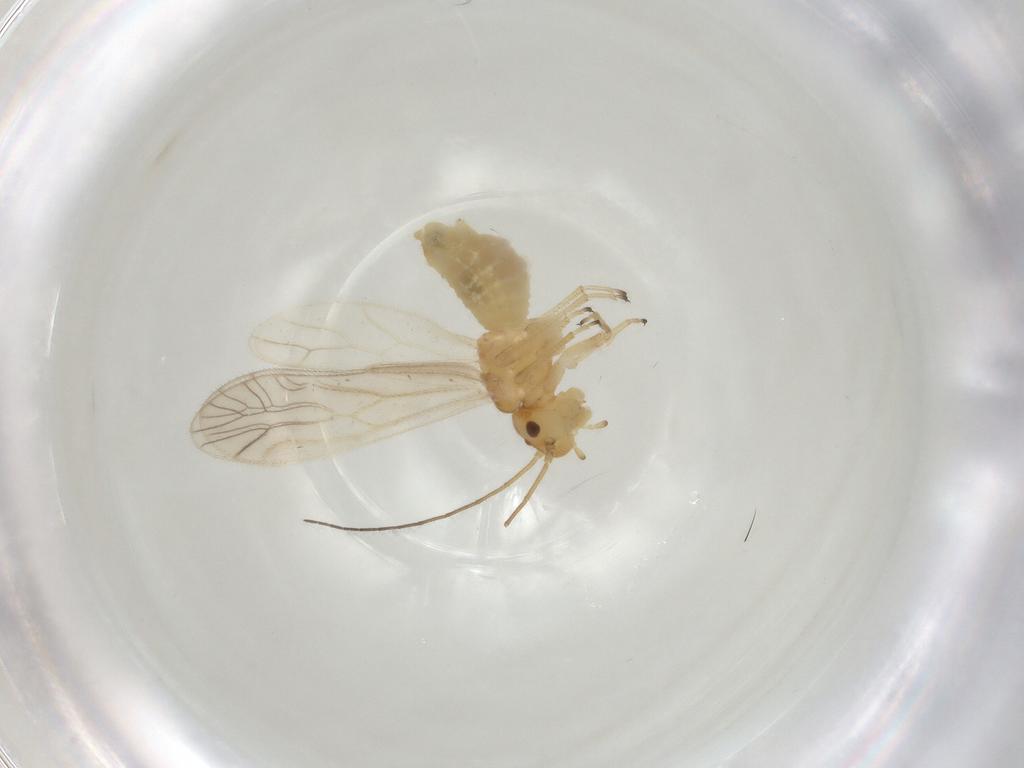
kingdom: Animalia
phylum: Arthropoda
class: Insecta
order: Psocodea
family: Caeciliusidae
